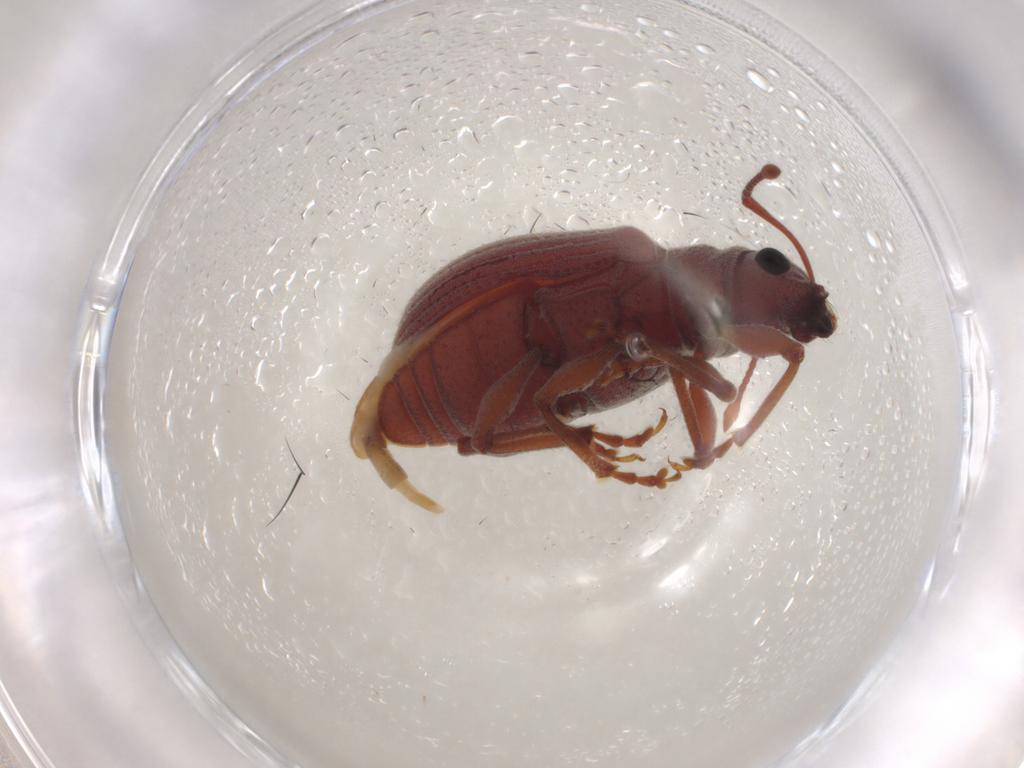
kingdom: Animalia
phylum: Arthropoda
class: Insecta
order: Coleoptera
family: Curculionidae
